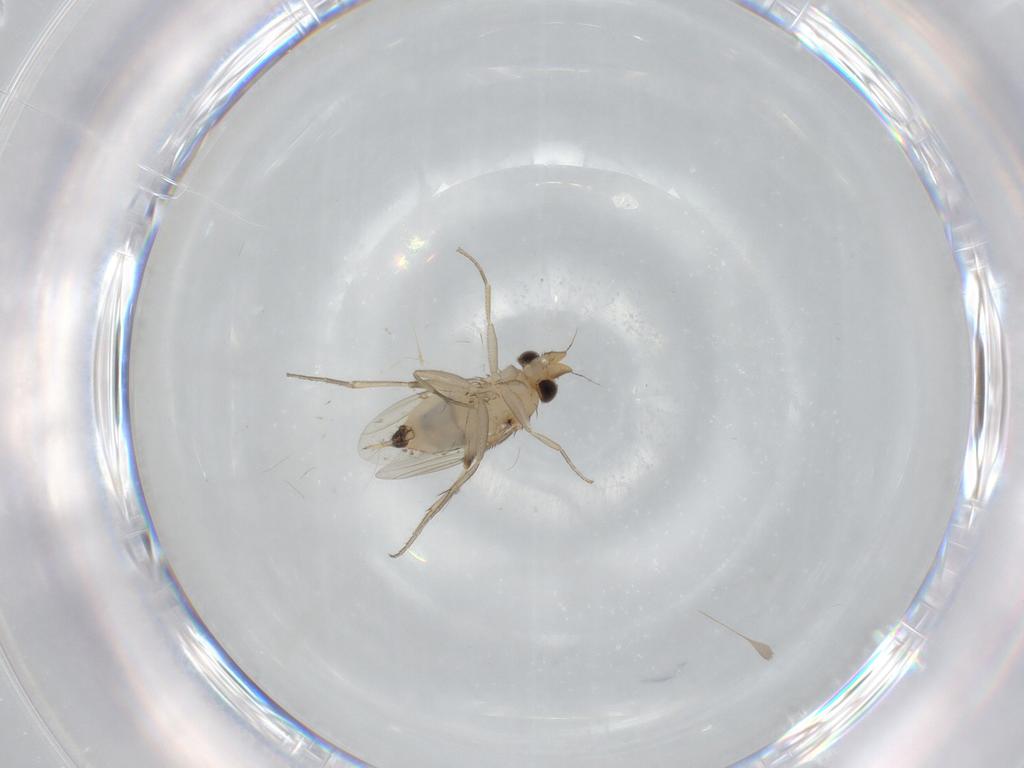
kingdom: Animalia
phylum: Arthropoda
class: Insecta
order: Diptera
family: Phoridae
